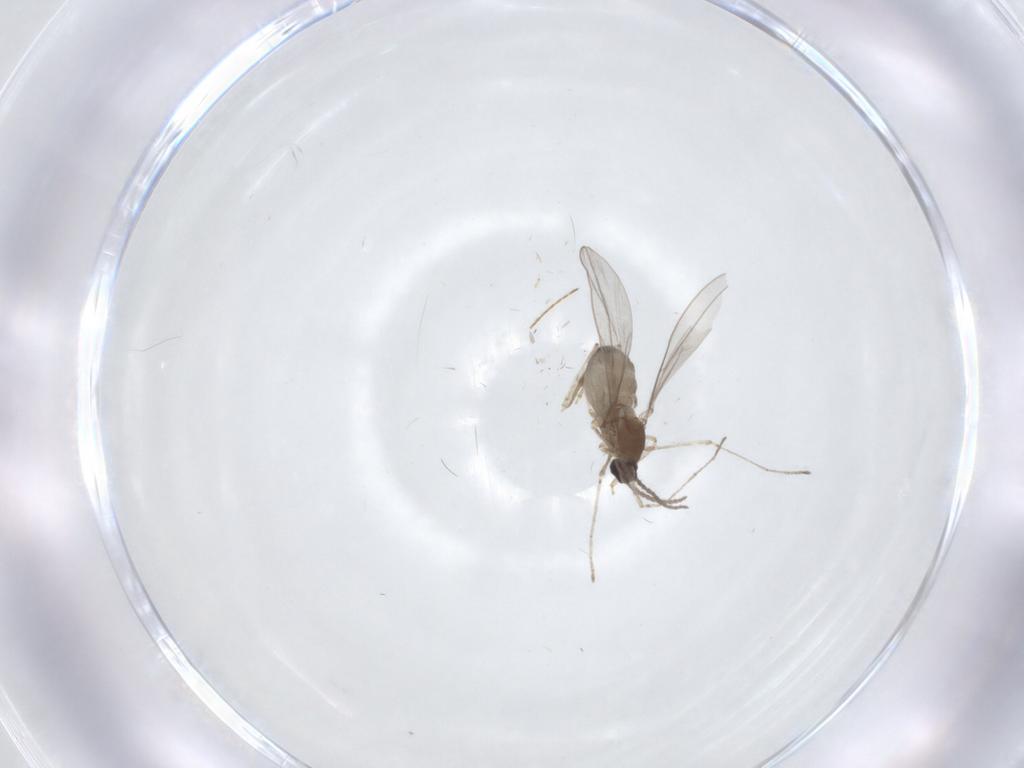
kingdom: Animalia
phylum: Arthropoda
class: Insecta
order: Diptera
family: Cecidomyiidae
